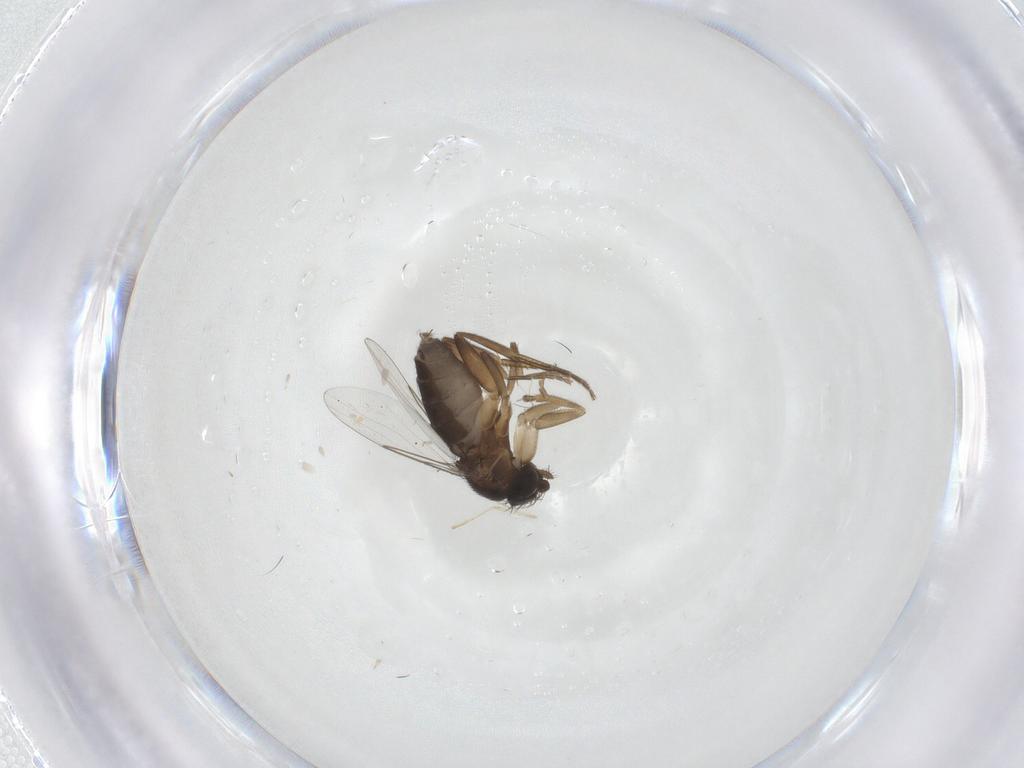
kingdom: Animalia
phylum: Arthropoda
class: Insecta
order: Diptera
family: Phoridae
